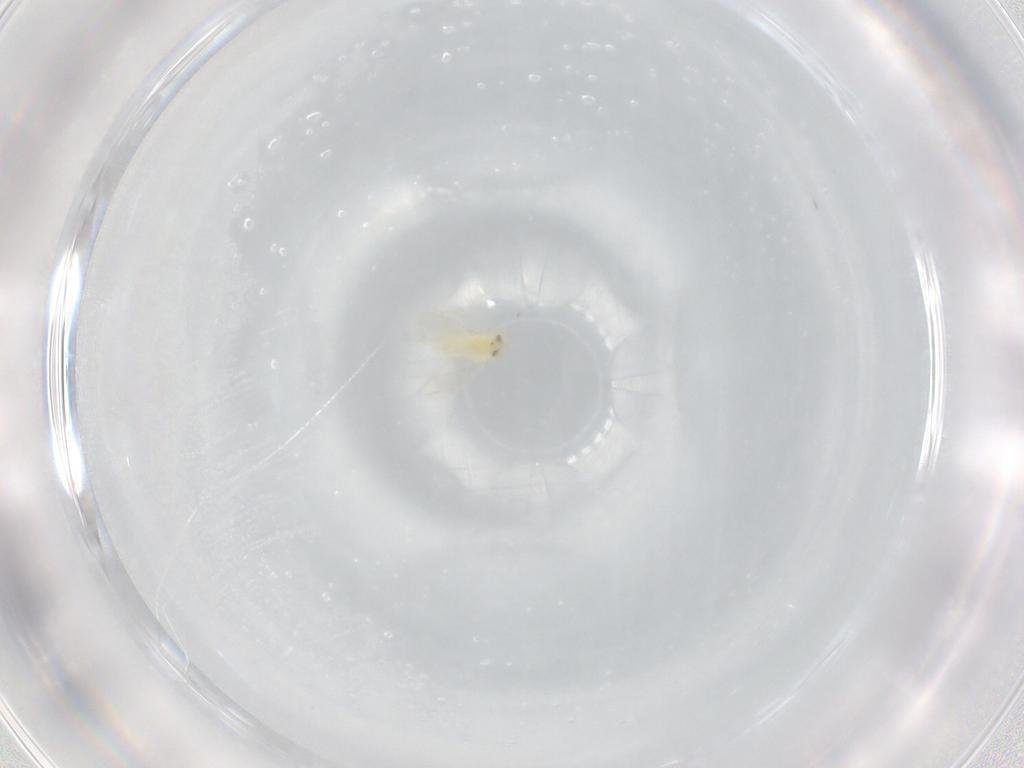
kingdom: Animalia
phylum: Arthropoda
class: Insecta
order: Hymenoptera
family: Aphelinidae
